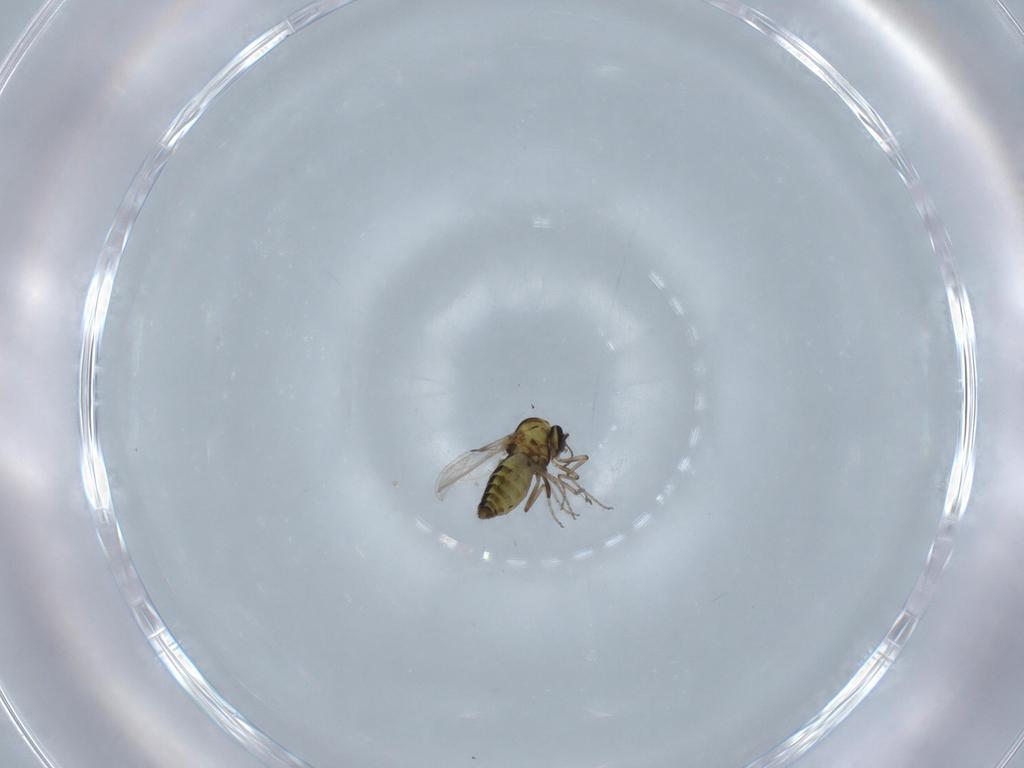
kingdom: Animalia
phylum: Arthropoda
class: Insecta
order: Diptera
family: Ceratopogonidae
